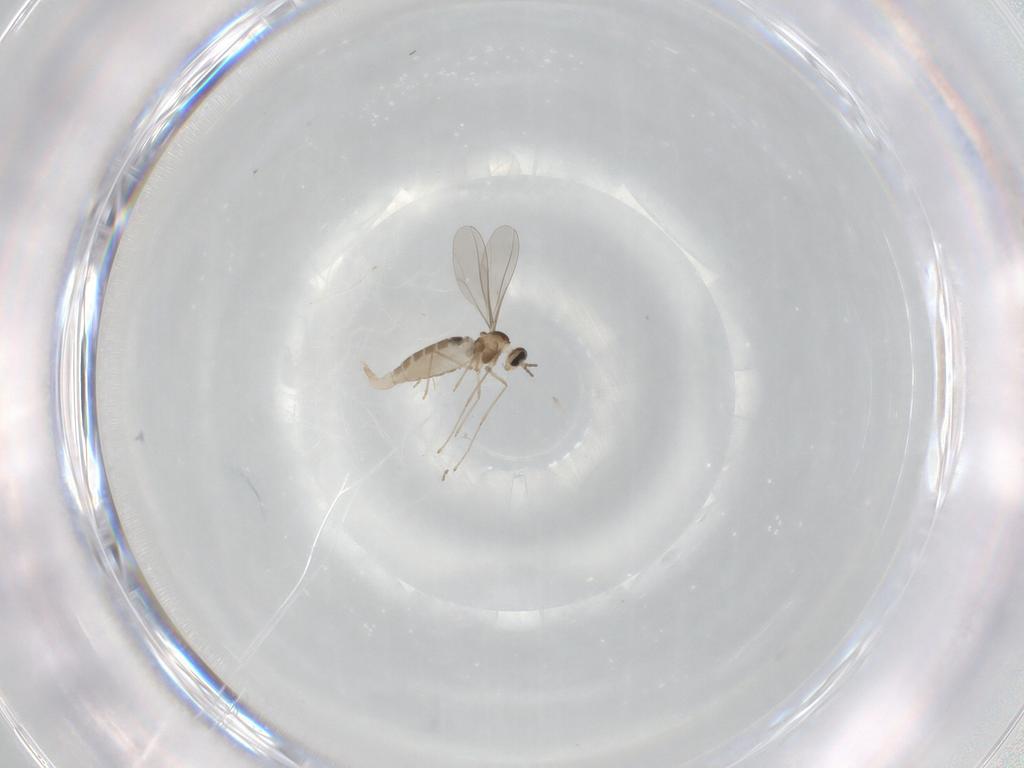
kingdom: Animalia
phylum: Arthropoda
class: Insecta
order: Diptera
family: Sciaridae
